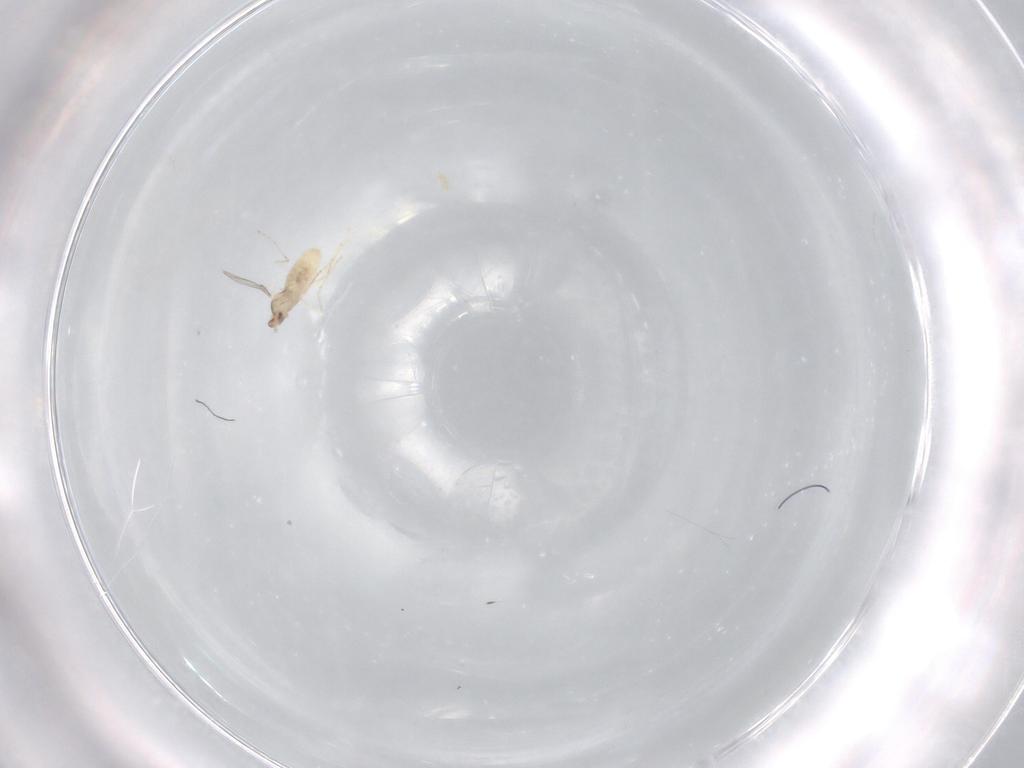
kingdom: Animalia
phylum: Arthropoda
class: Insecta
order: Diptera
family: Cecidomyiidae
